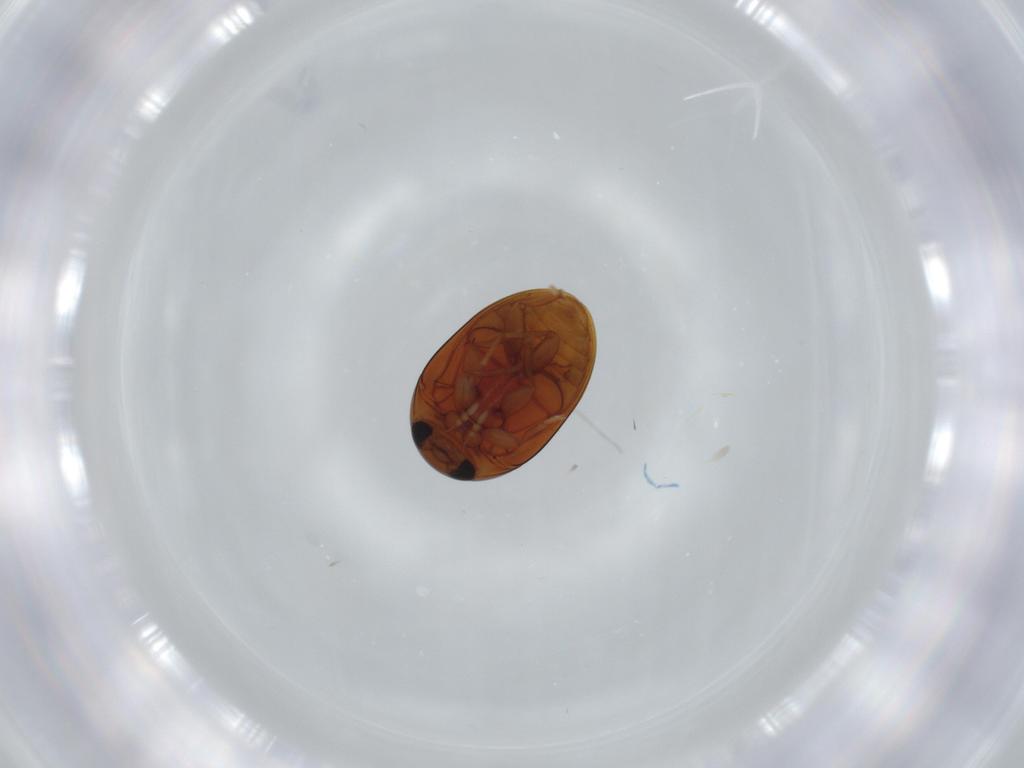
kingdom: Animalia
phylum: Arthropoda
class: Insecta
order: Coleoptera
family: Phalacridae
